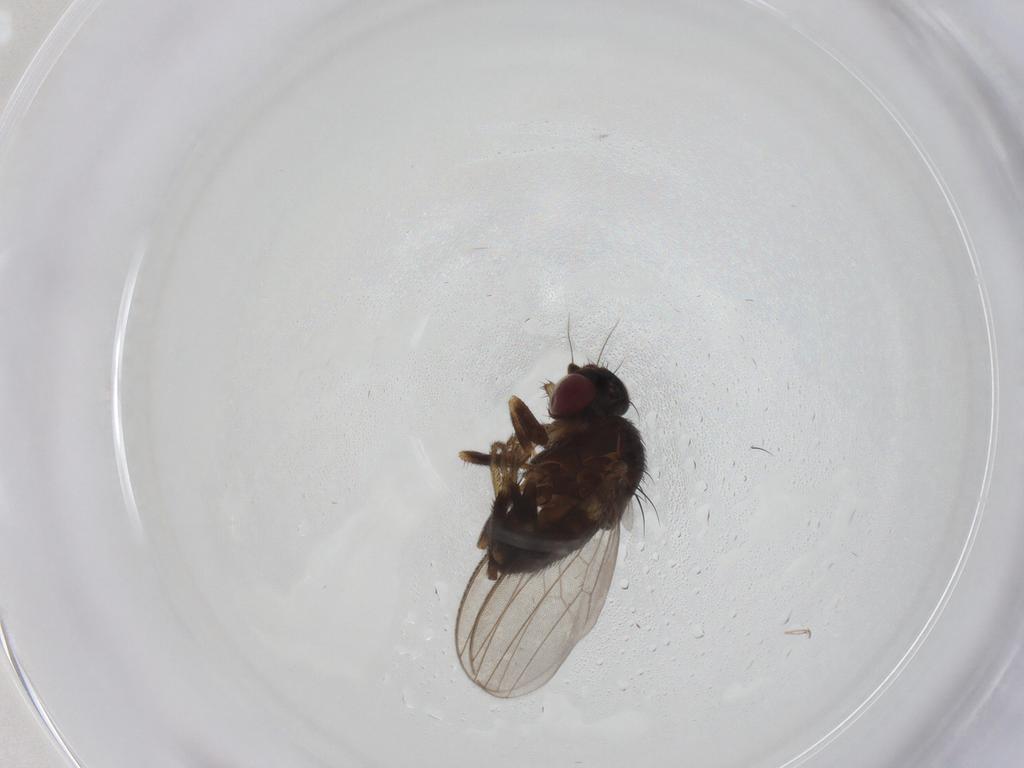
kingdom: Animalia
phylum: Arthropoda
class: Insecta
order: Diptera
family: Milichiidae
